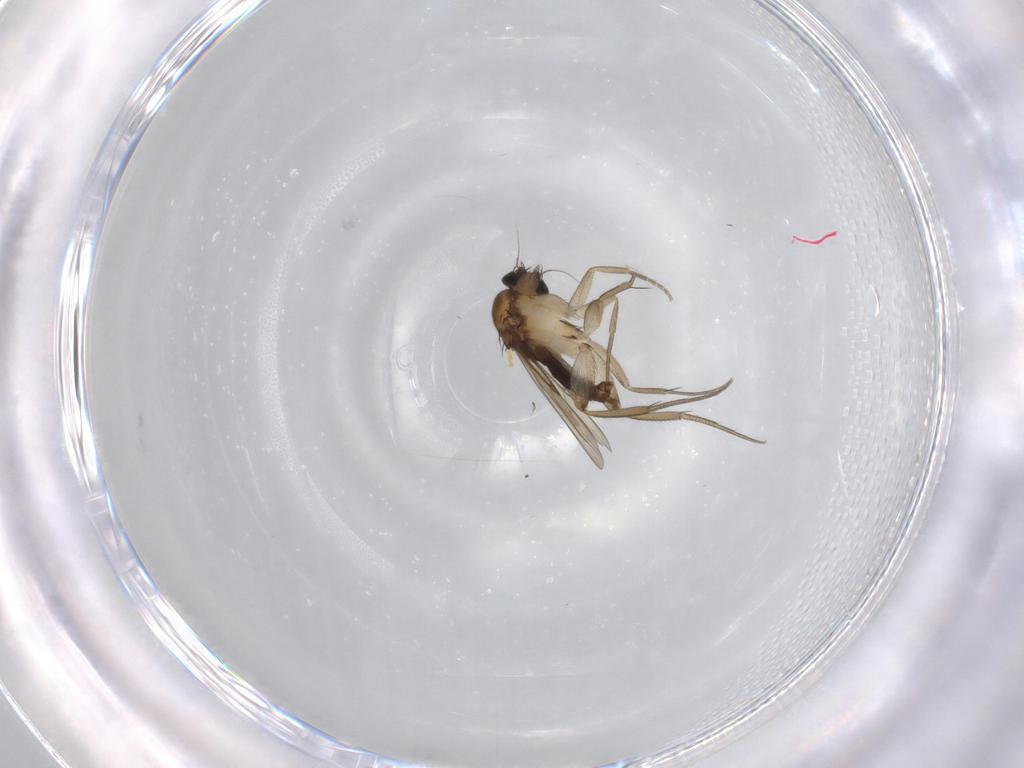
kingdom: Animalia
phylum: Arthropoda
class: Insecta
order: Diptera
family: Phoridae
